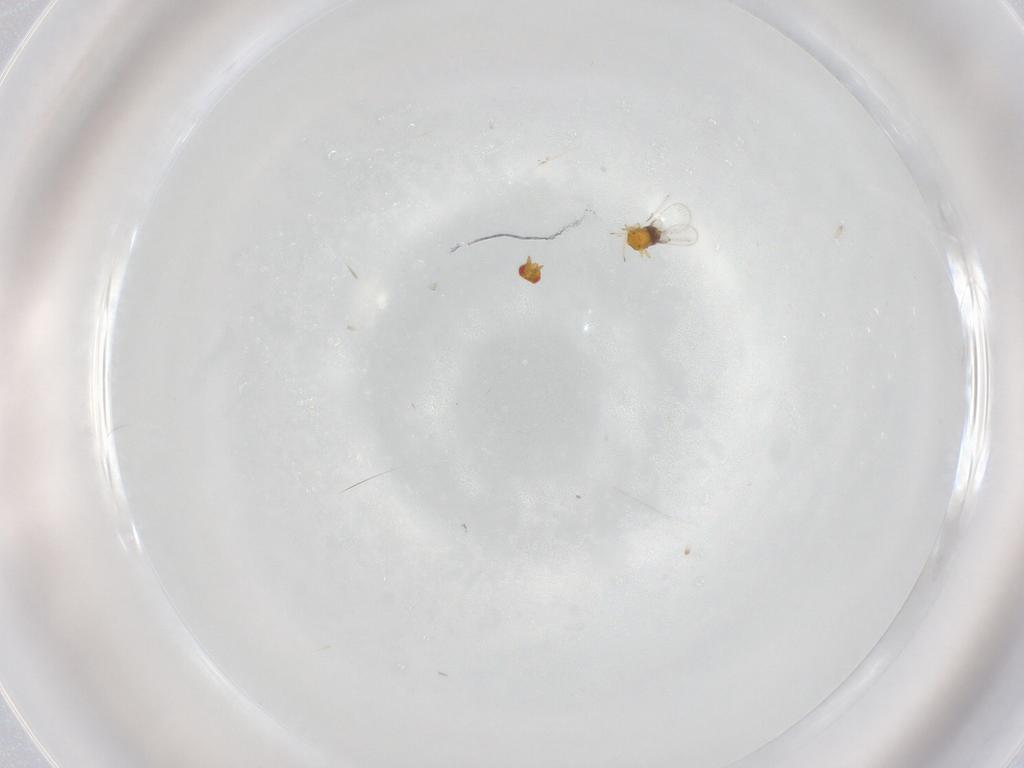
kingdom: Animalia
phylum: Arthropoda
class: Insecta
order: Hymenoptera
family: Trichogrammatidae
